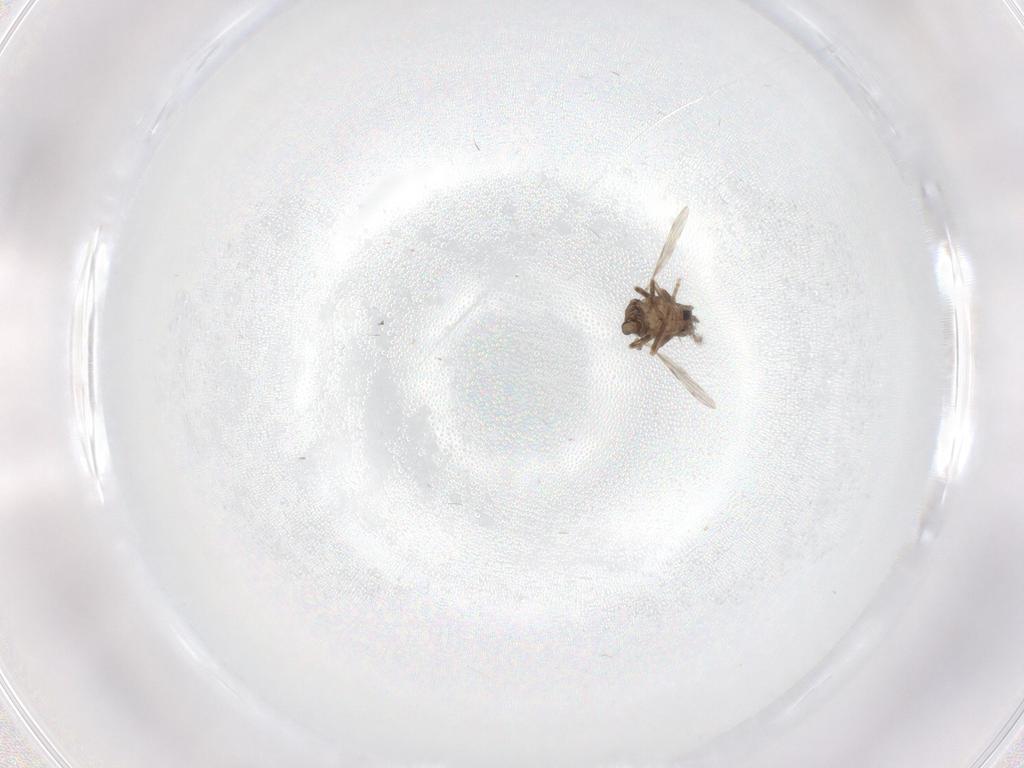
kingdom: Animalia
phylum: Arthropoda
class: Insecta
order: Diptera
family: Ceratopogonidae
